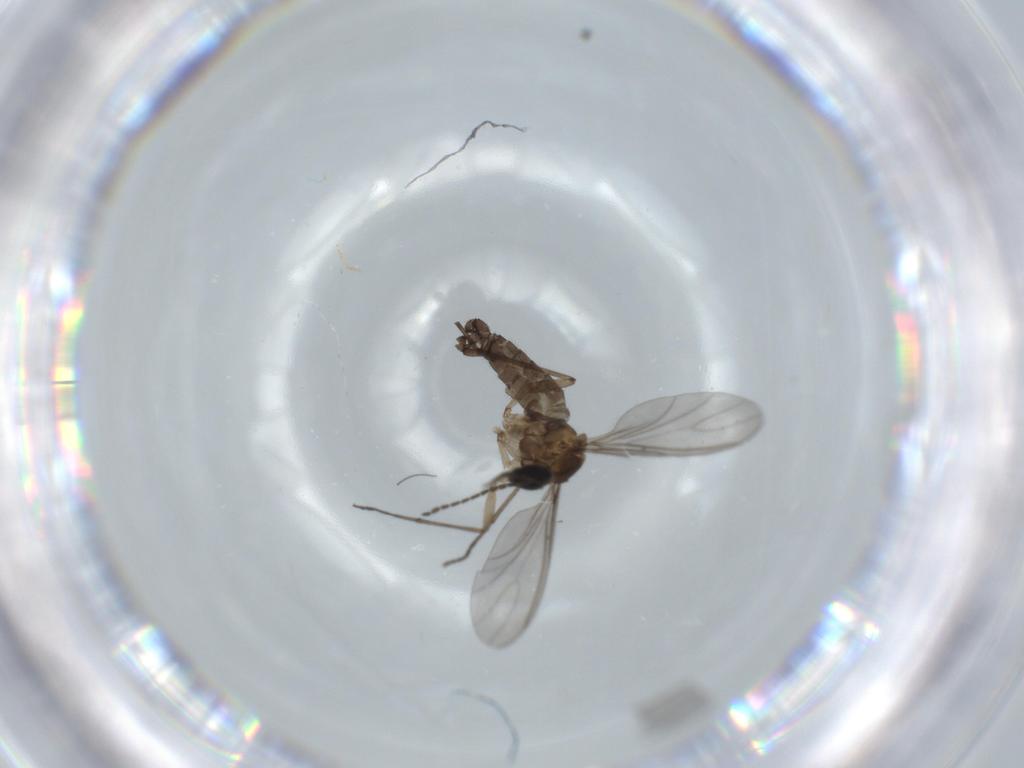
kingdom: Animalia
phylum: Arthropoda
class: Insecta
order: Diptera
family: Sciaridae
